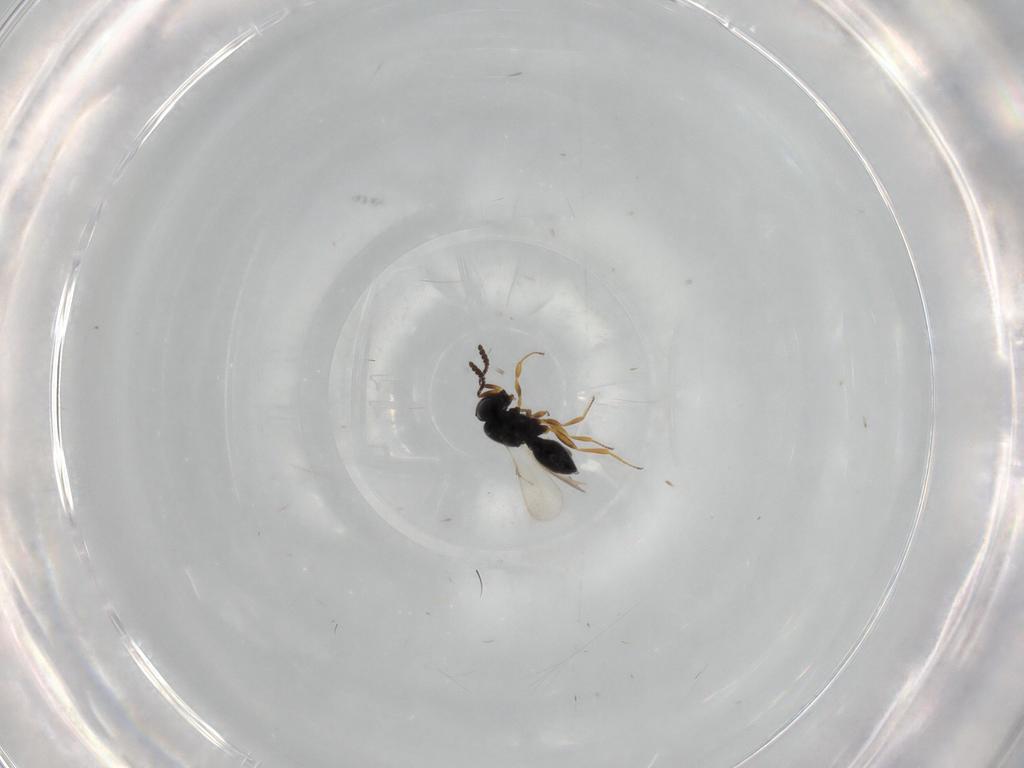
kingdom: Animalia
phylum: Arthropoda
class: Insecta
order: Hymenoptera
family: Scelionidae
